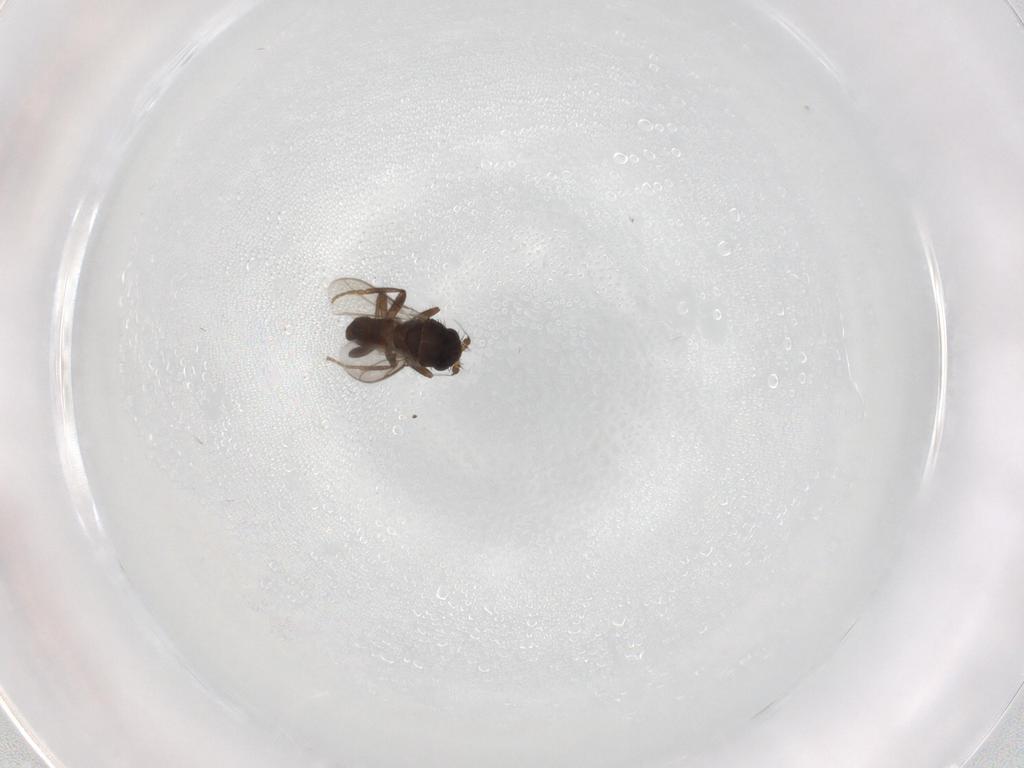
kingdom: Animalia
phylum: Arthropoda
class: Insecta
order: Diptera
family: Sphaeroceridae
